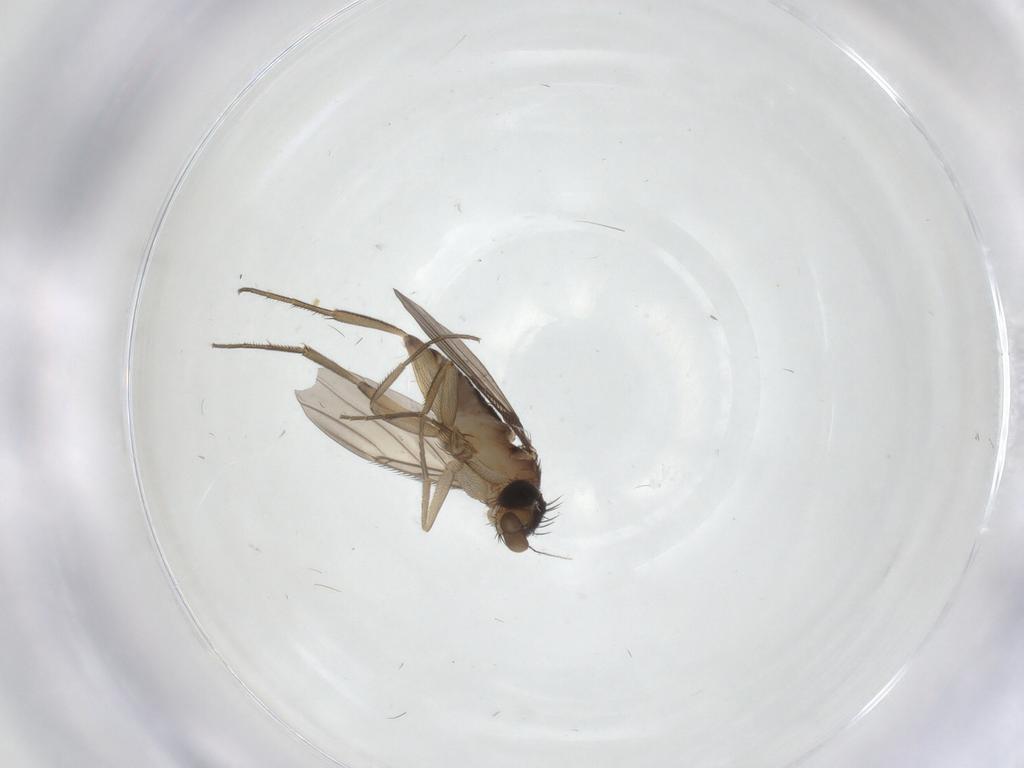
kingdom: Animalia
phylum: Arthropoda
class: Insecta
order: Diptera
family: Phoridae
